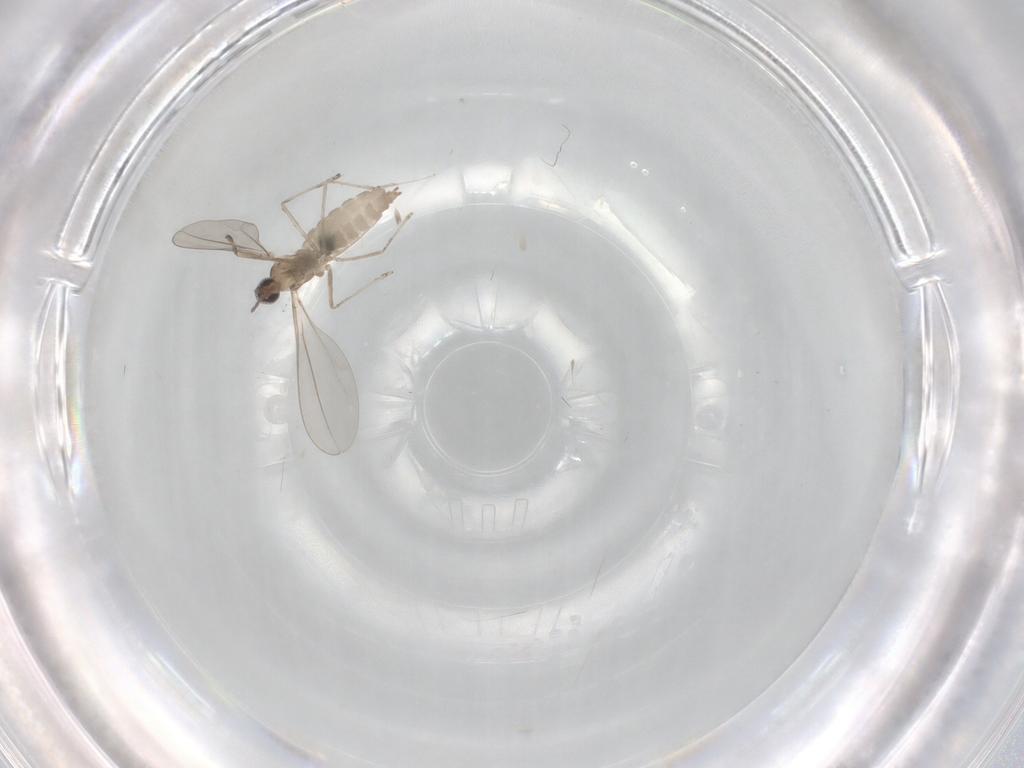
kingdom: Animalia
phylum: Arthropoda
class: Insecta
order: Diptera
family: Cecidomyiidae
